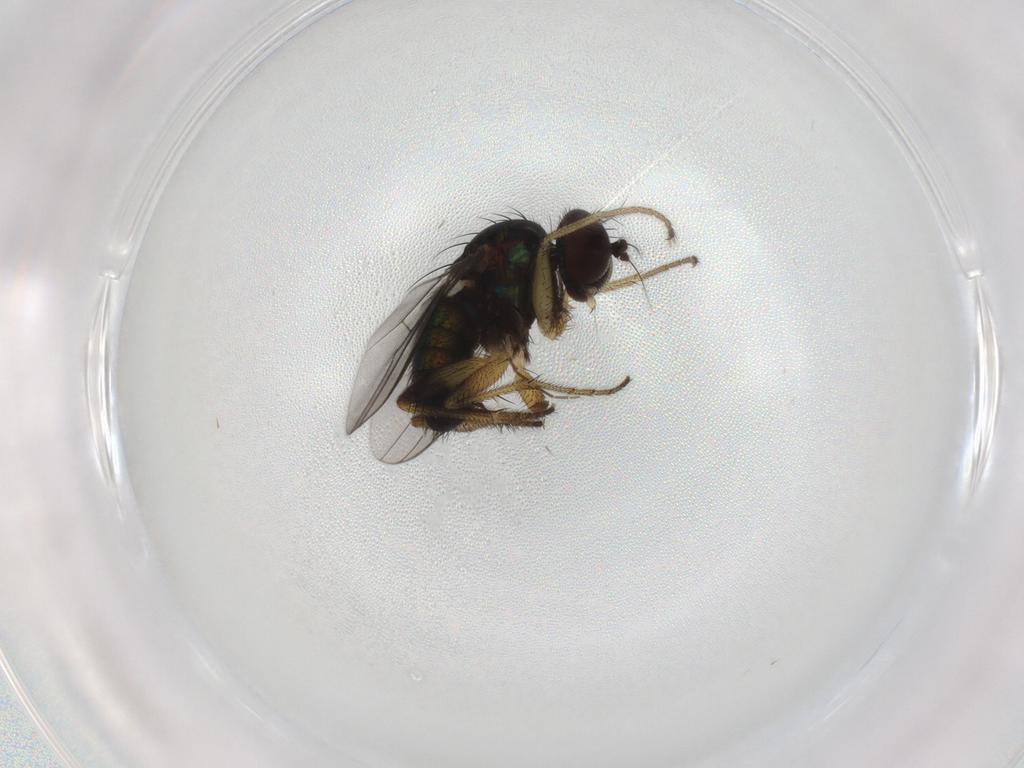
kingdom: Animalia
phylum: Arthropoda
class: Insecta
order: Diptera
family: Dolichopodidae
